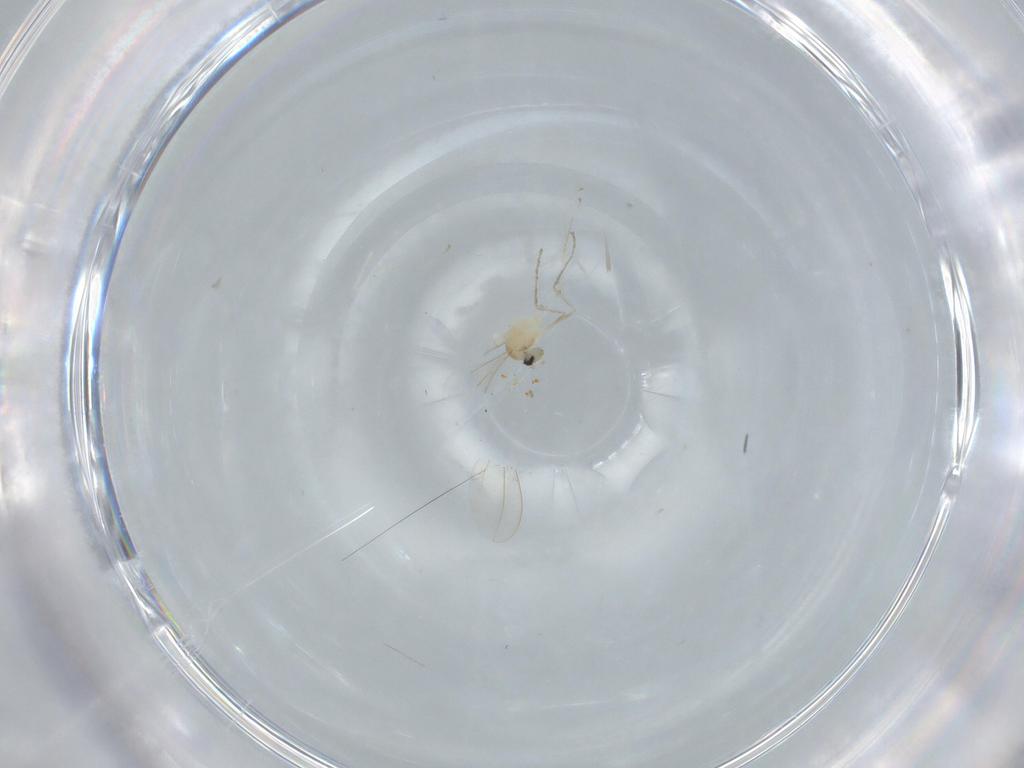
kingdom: Animalia
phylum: Arthropoda
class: Insecta
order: Diptera
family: Cecidomyiidae
